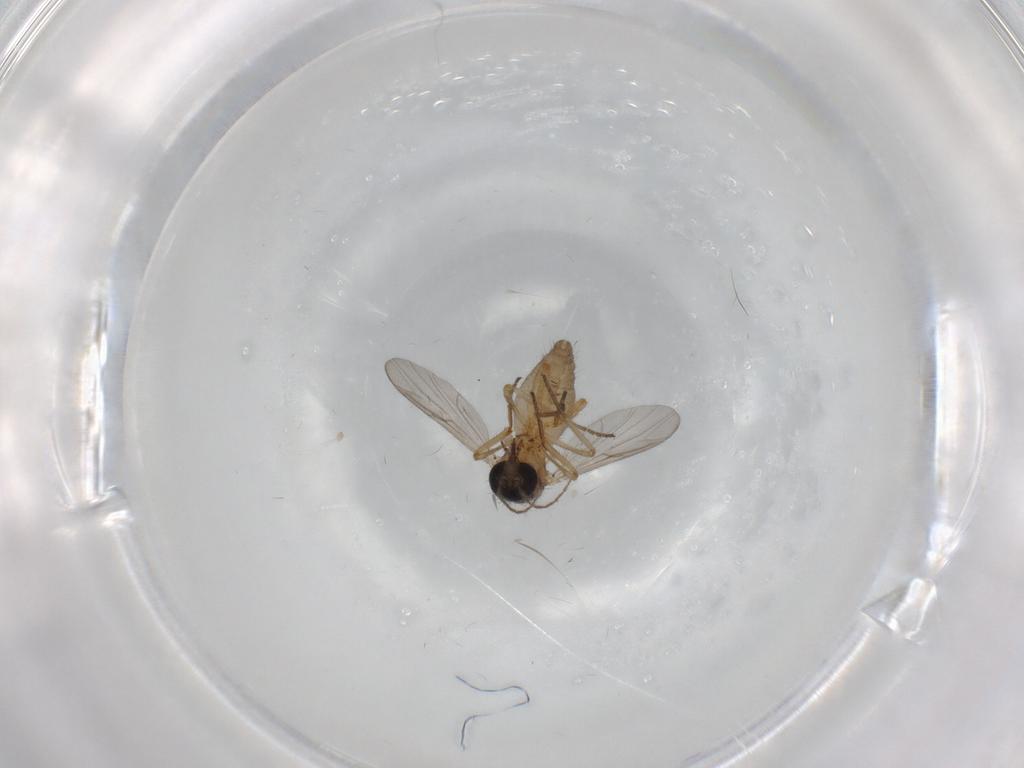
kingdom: Animalia
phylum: Arthropoda
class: Insecta
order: Diptera
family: Ceratopogonidae
